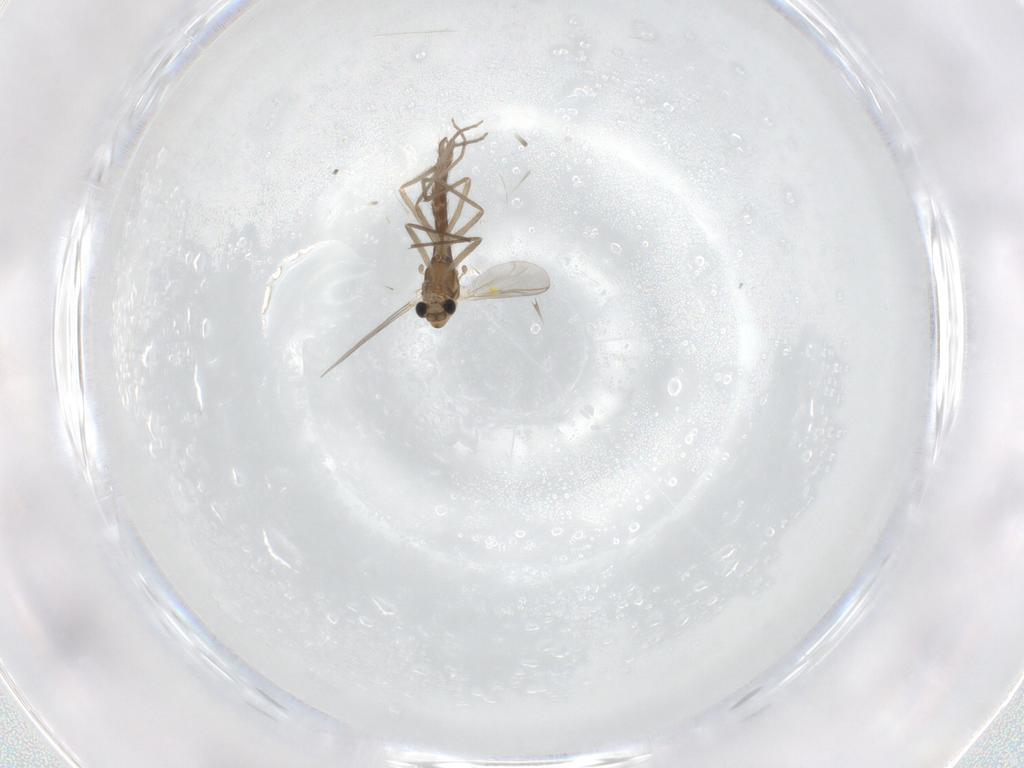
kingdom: Animalia
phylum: Arthropoda
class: Insecta
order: Diptera
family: Chironomidae
